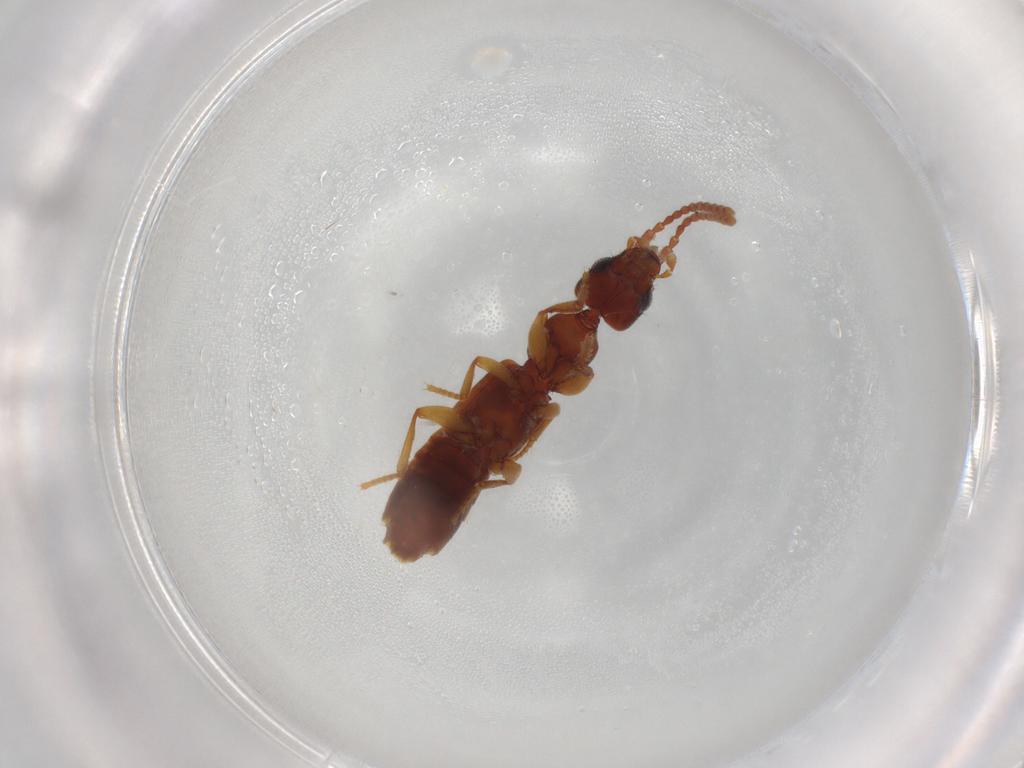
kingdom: Animalia
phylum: Arthropoda
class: Insecta
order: Coleoptera
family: Staphylinidae
